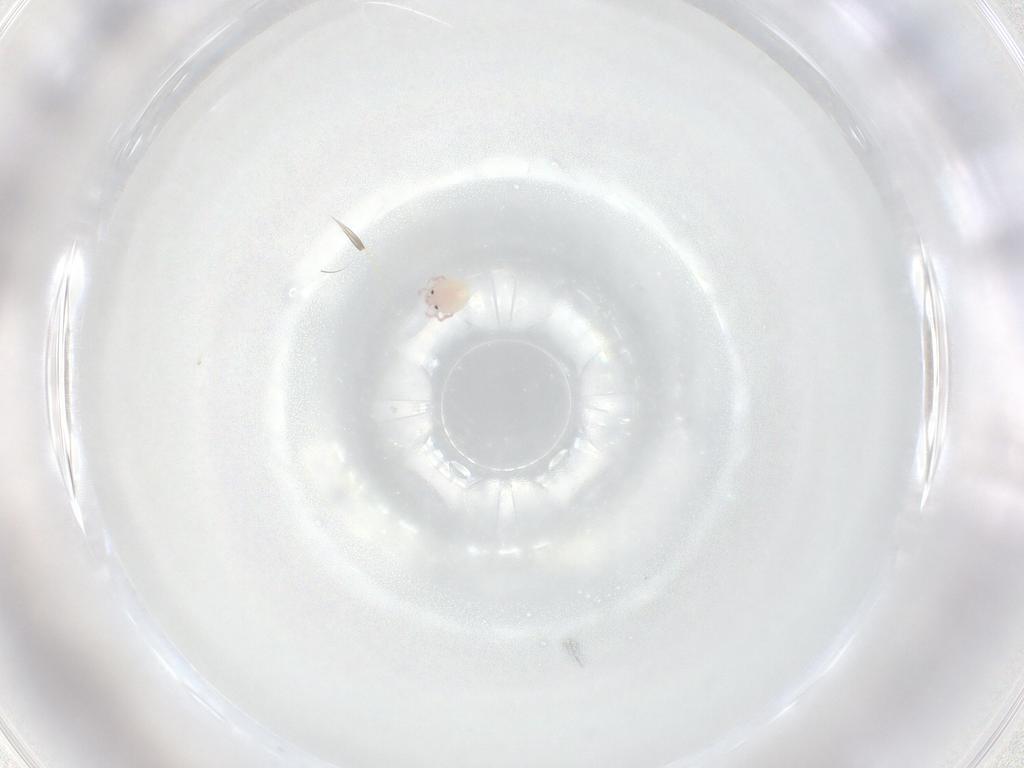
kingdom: Animalia
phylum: Arthropoda
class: Arachnida
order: Trombidiformes
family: Lebertiidae
